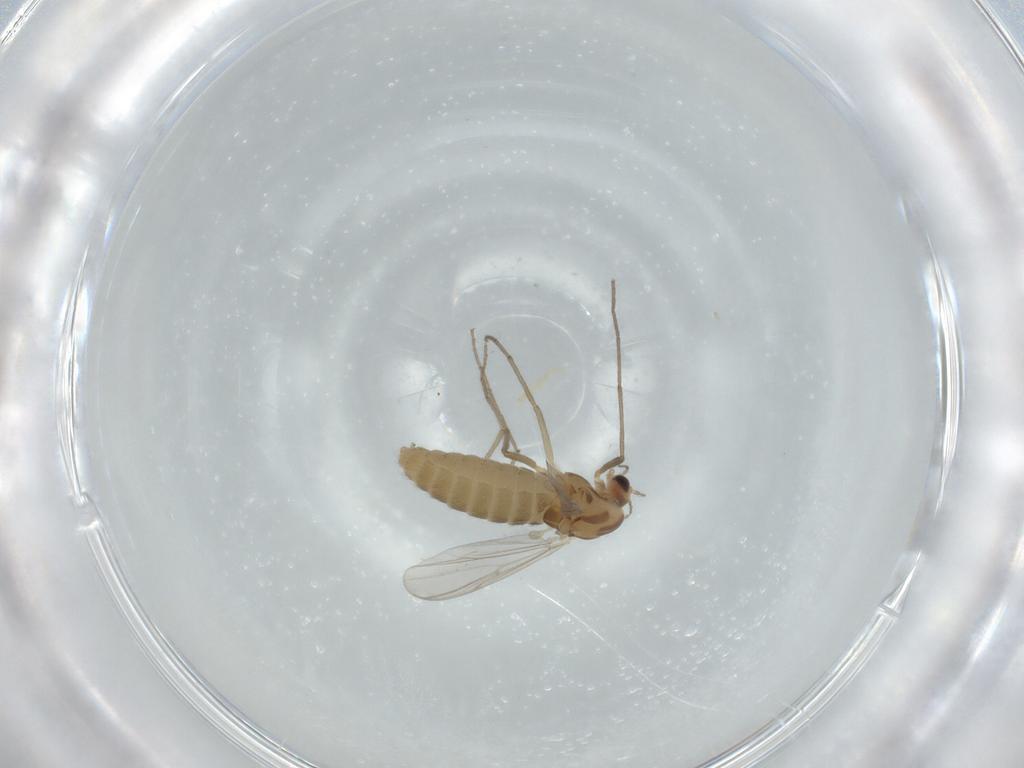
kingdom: Animalia
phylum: Arthropoda
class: Insecta
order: Diptera
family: Chironomidae
